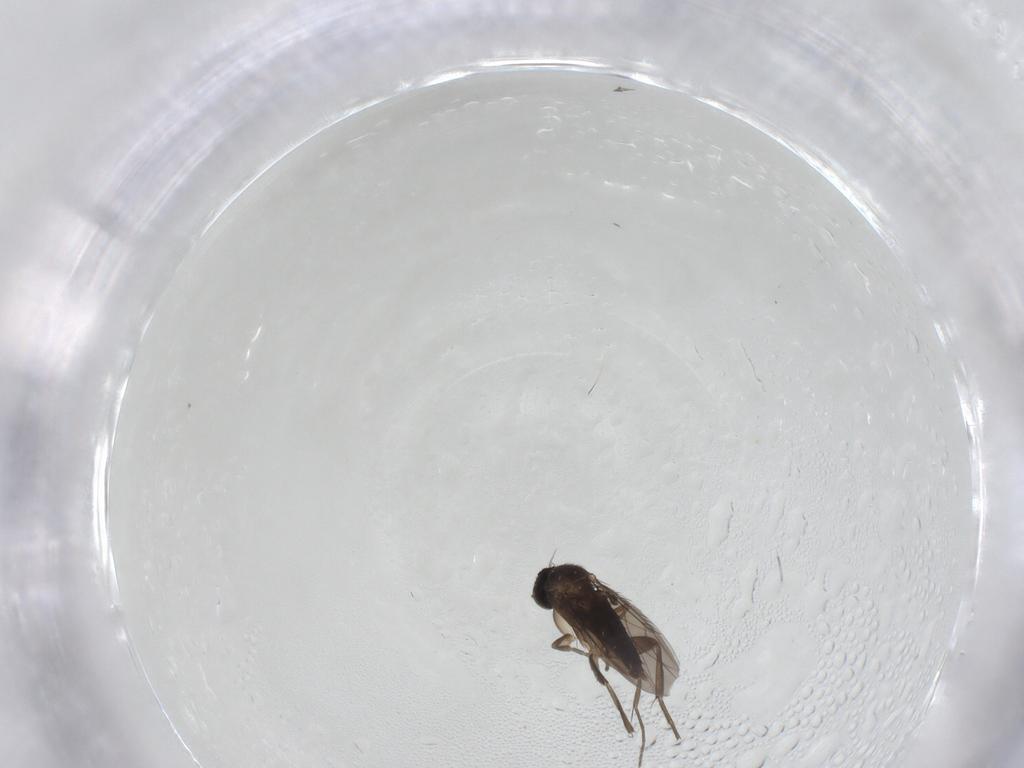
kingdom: Animalia
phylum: Arthropoda
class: Insecta
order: Diptera
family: Phoridae
